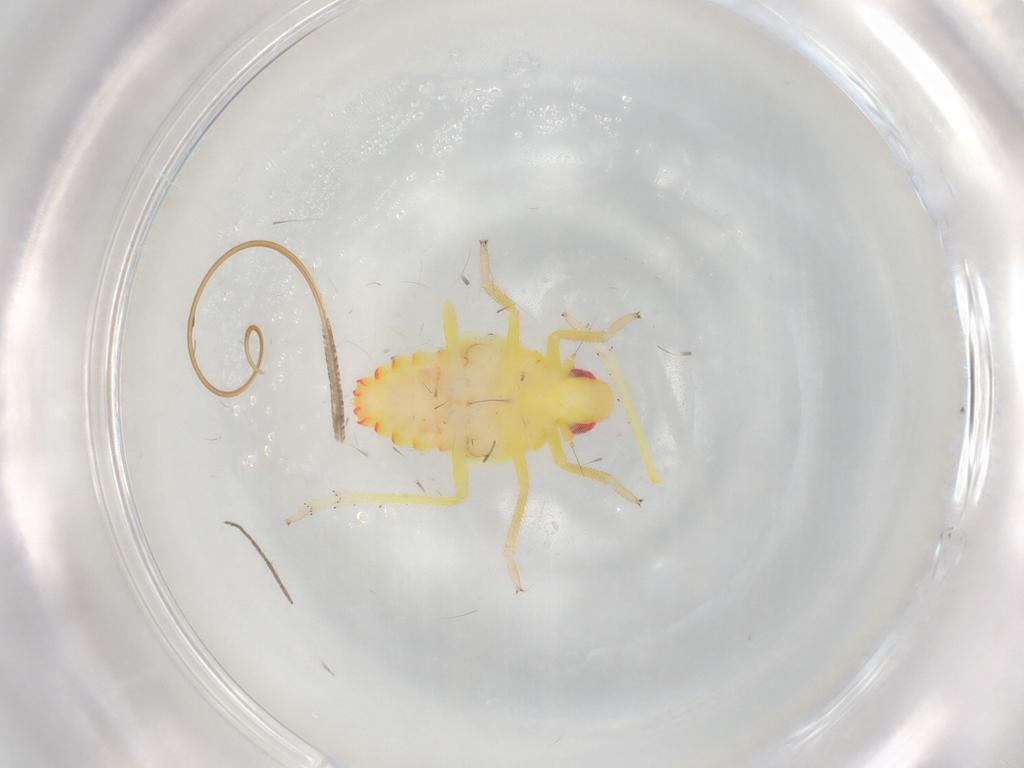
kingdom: Animalia
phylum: Arthropoda
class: Insecta
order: Hemiptera
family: Tropiduchidae
